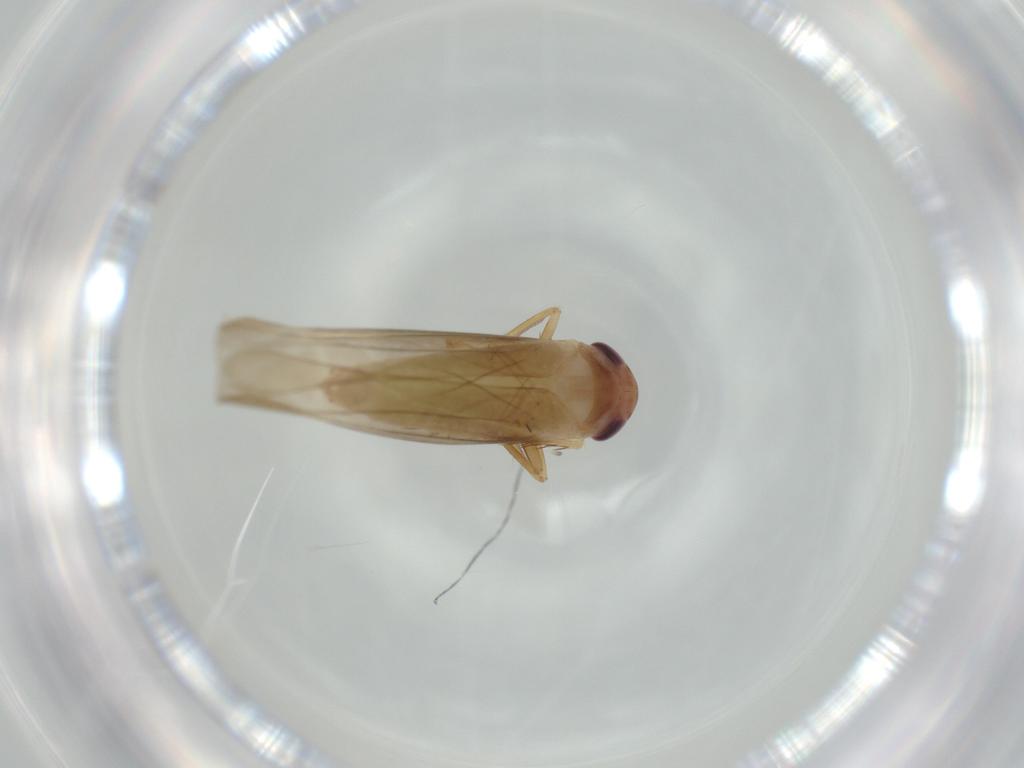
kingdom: Animalia
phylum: Arthropoda
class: Insecta
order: Hemiptera
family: Cicadellidae
